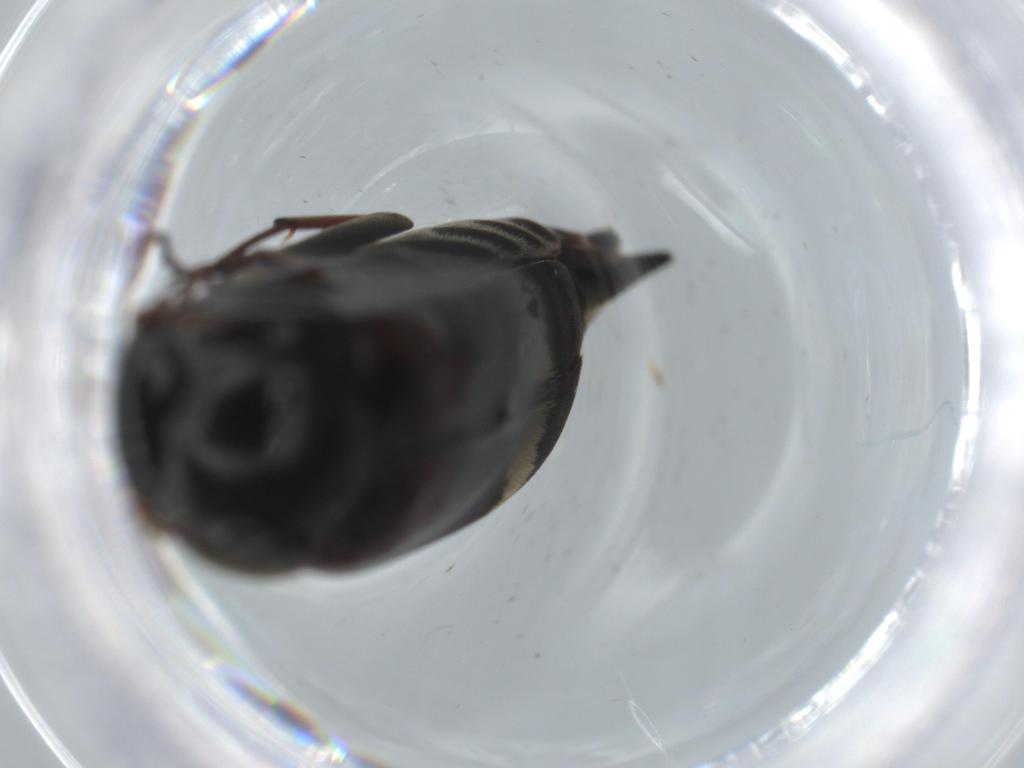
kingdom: Animalia
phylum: Arthropoda
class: Insecta
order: Coleoptera
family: Mordellidae
